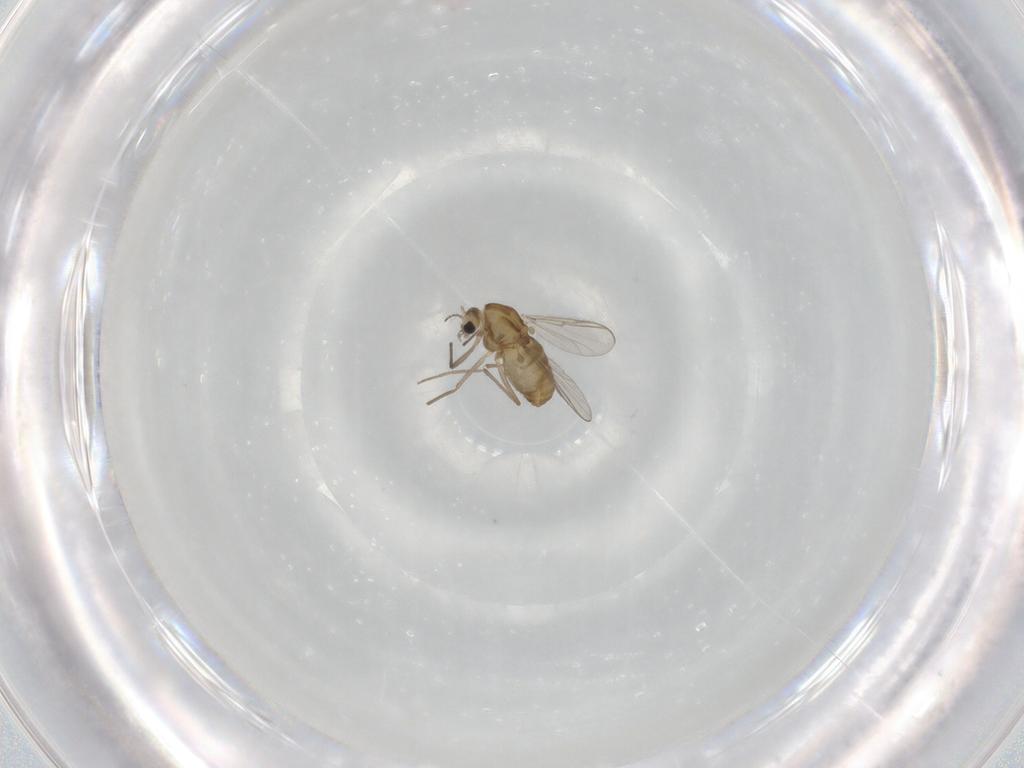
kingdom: Animalia
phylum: Arthropoda
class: Insecta
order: Diptera
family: Chironomidae
